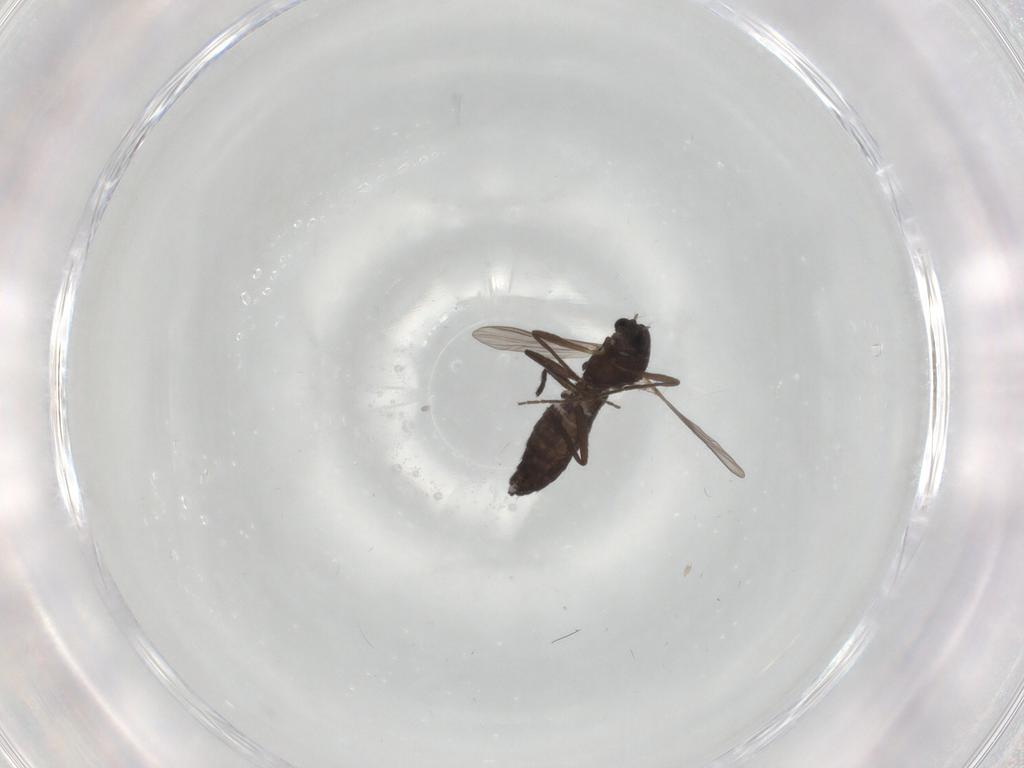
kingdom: Animalia
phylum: Arthropoda
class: Insecta
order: Diptera
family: Chironomidae
